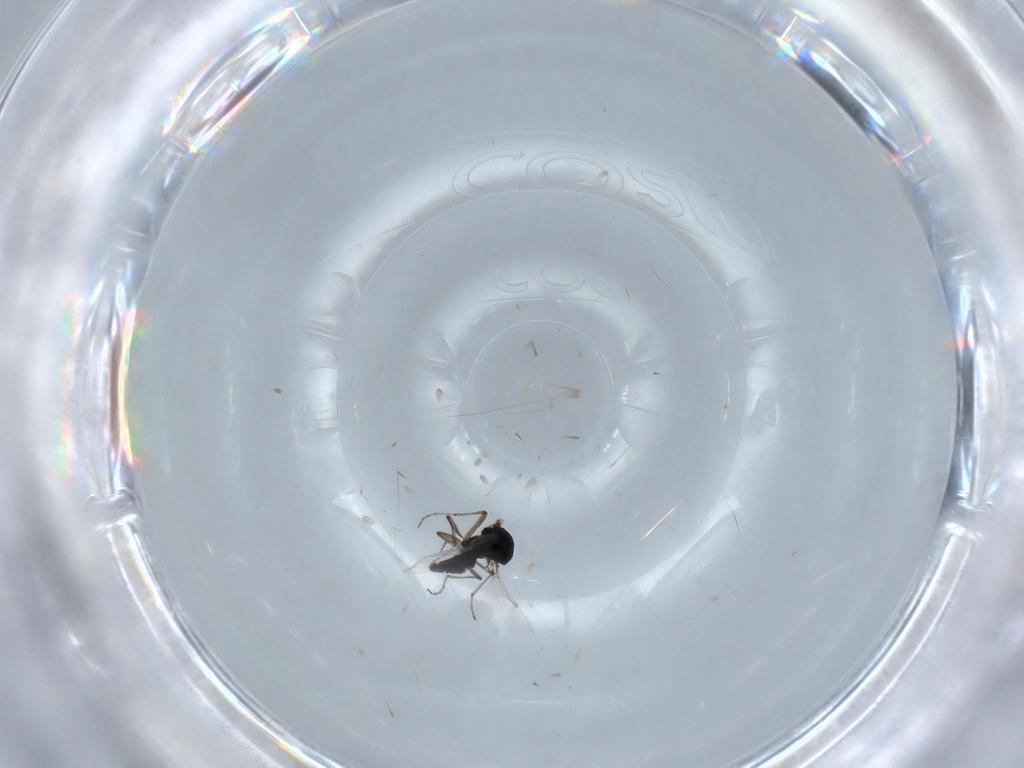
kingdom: Animalia
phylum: Arthropoda
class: Insecta
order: Diptera
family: Ceratopogonidae
